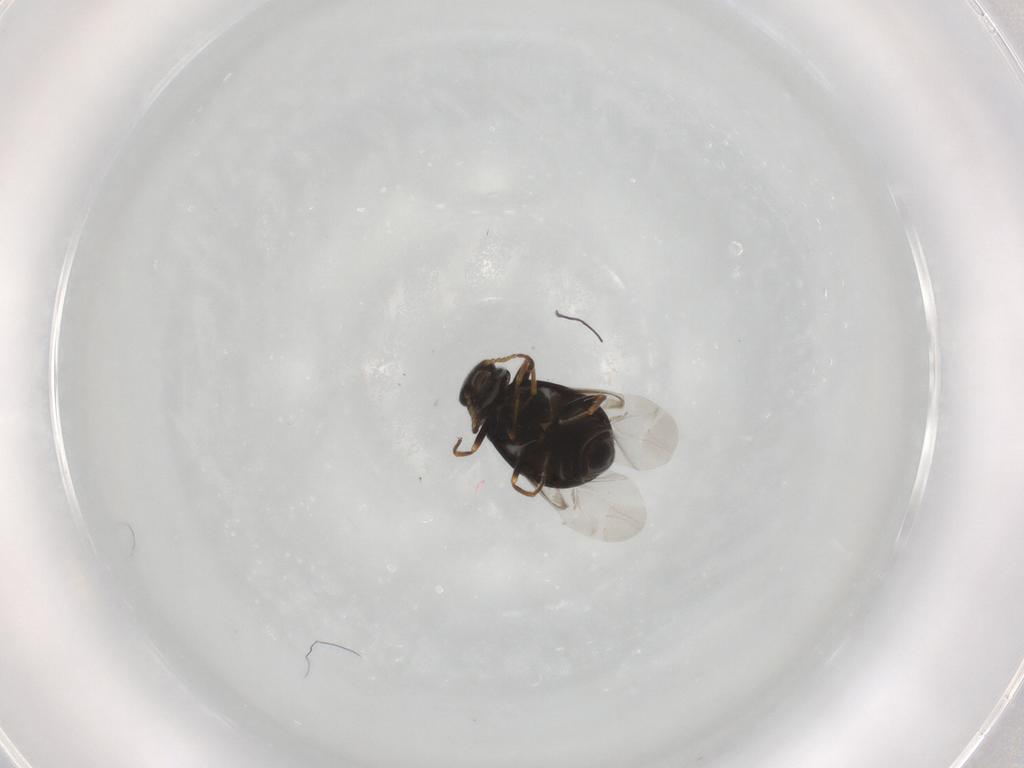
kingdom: Animalia
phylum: Arthropoda
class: Insecta
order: Coleoptera
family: Melyridae
